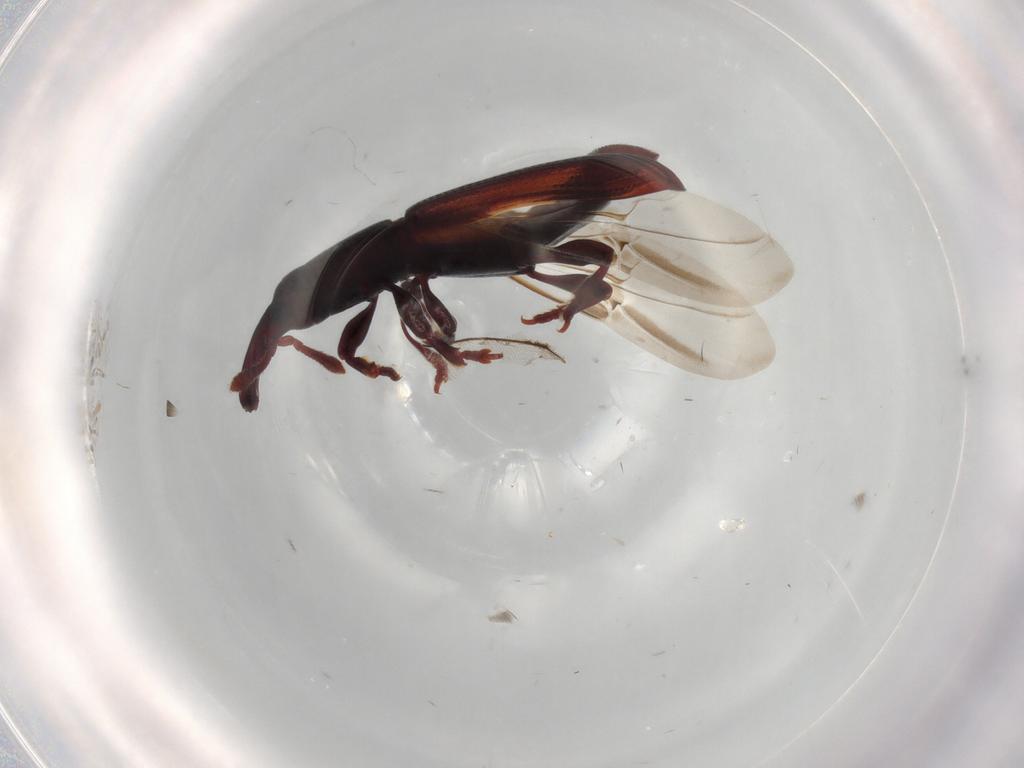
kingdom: Animalia
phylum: Arthropoda
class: Insecta
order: Coleoptera
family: Curculionidae
